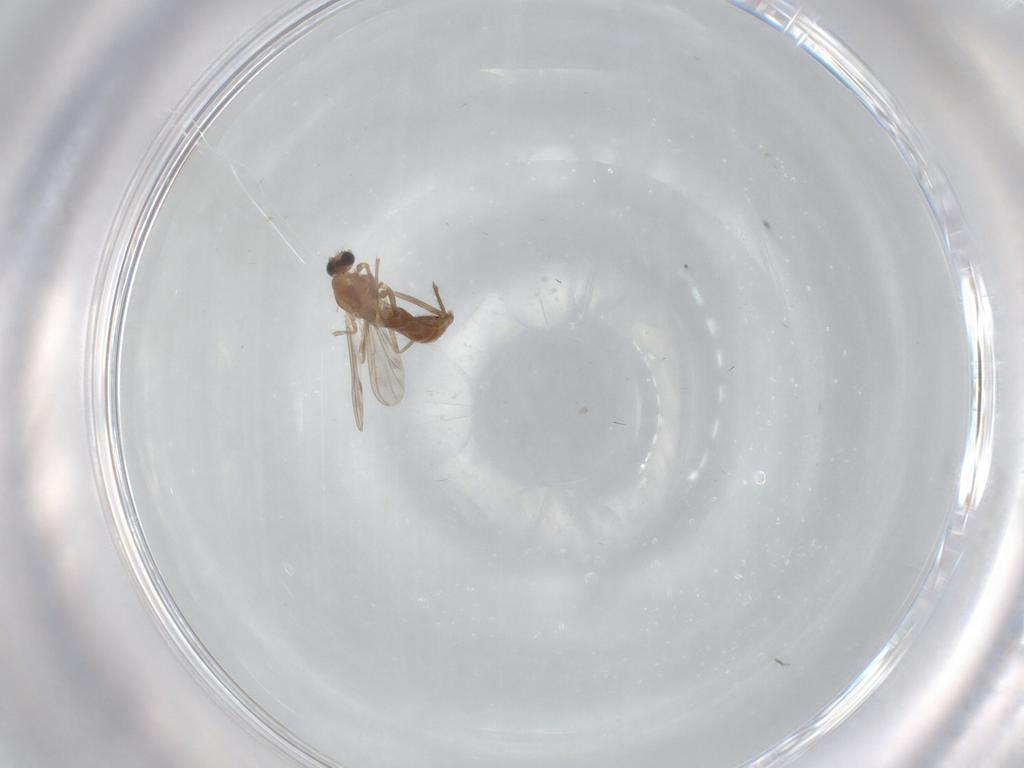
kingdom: Animalia
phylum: Arthropoda
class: Insecta
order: Diptera
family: Chironomidae
